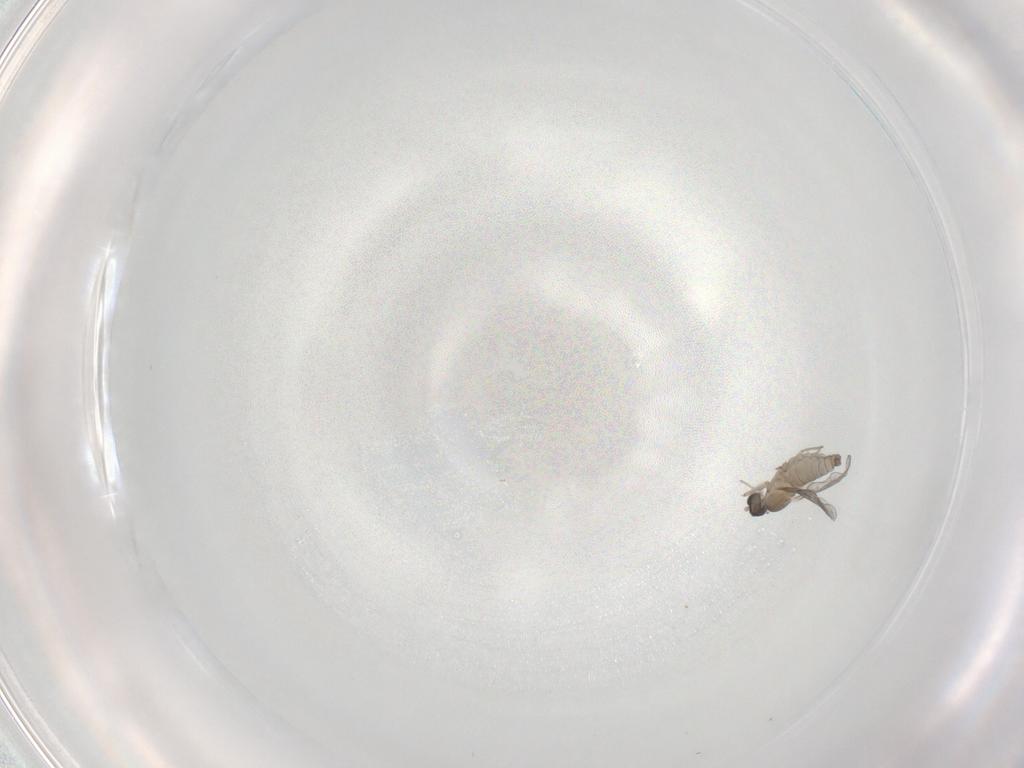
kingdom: Animalia
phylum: Arthropoda
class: Insecta
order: Diptera
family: Cecidomyiidae
